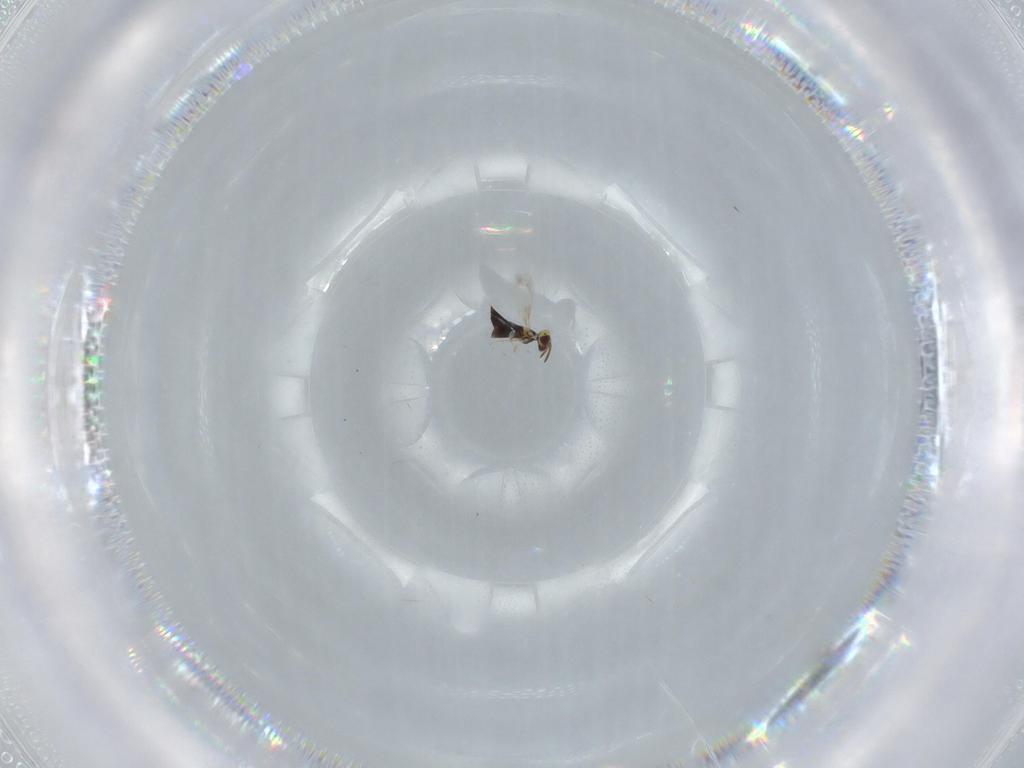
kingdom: Animalia
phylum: Arthropoda
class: Insecta
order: Hymenoptera
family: Signiphoridae
